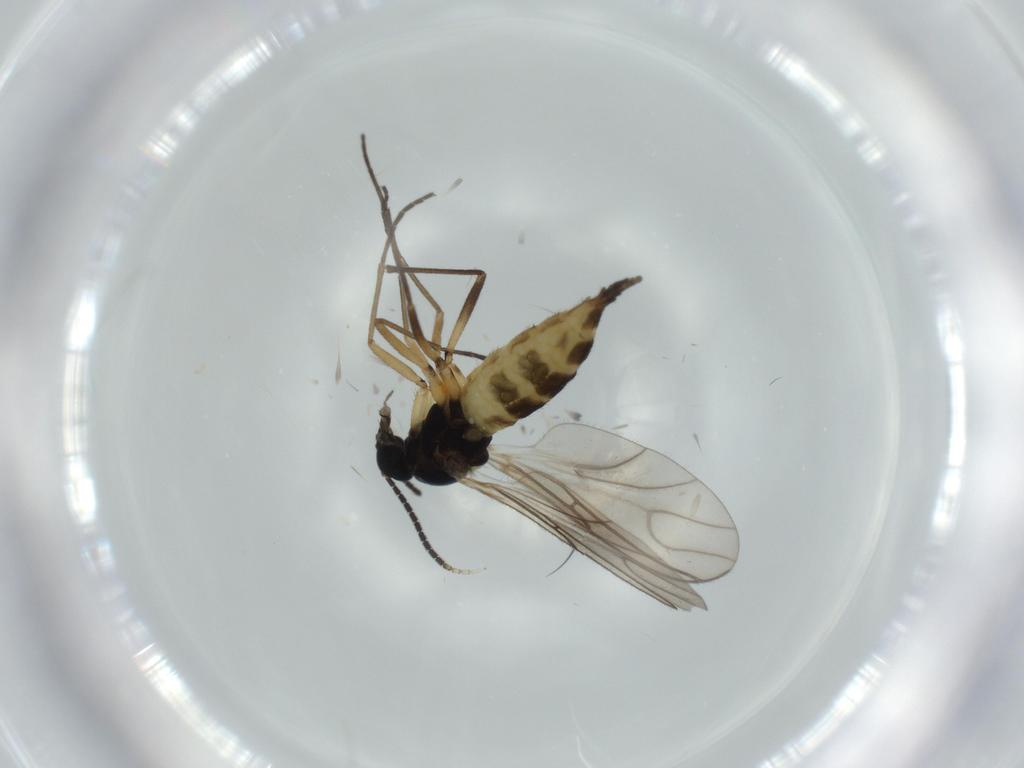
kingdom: Animalia
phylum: Arthropoda
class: Insecta
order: Diptera
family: Sciaridae
